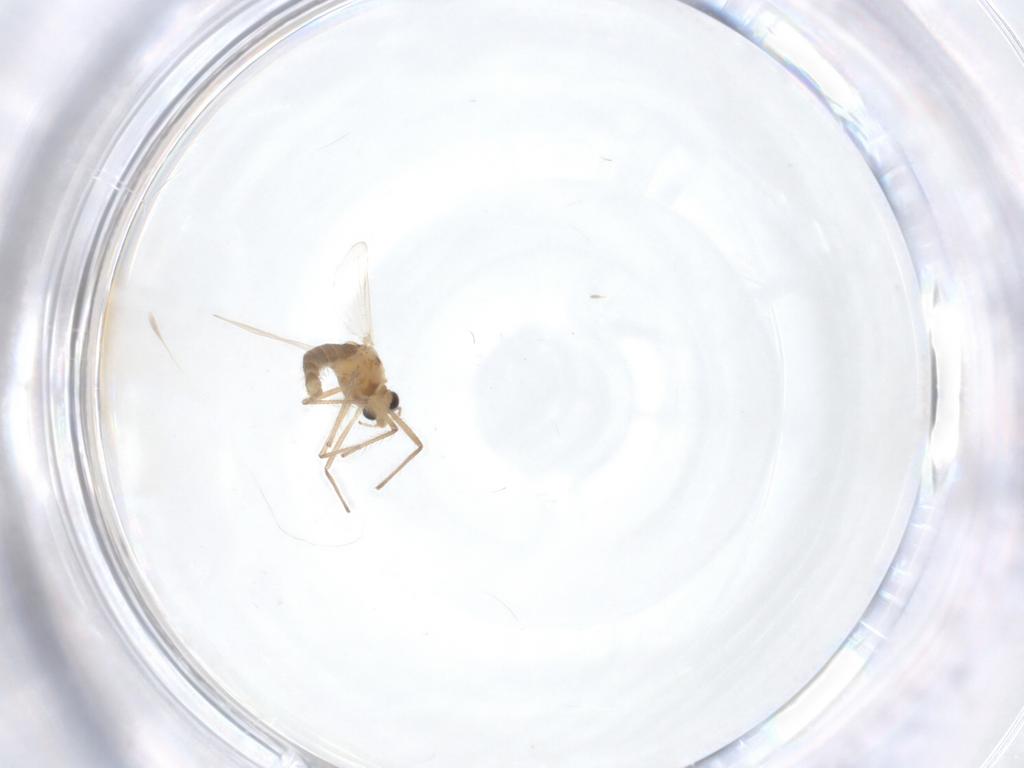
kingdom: Animalia
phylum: Arthropoda
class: Insecta
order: Diptera
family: Chironomidae
